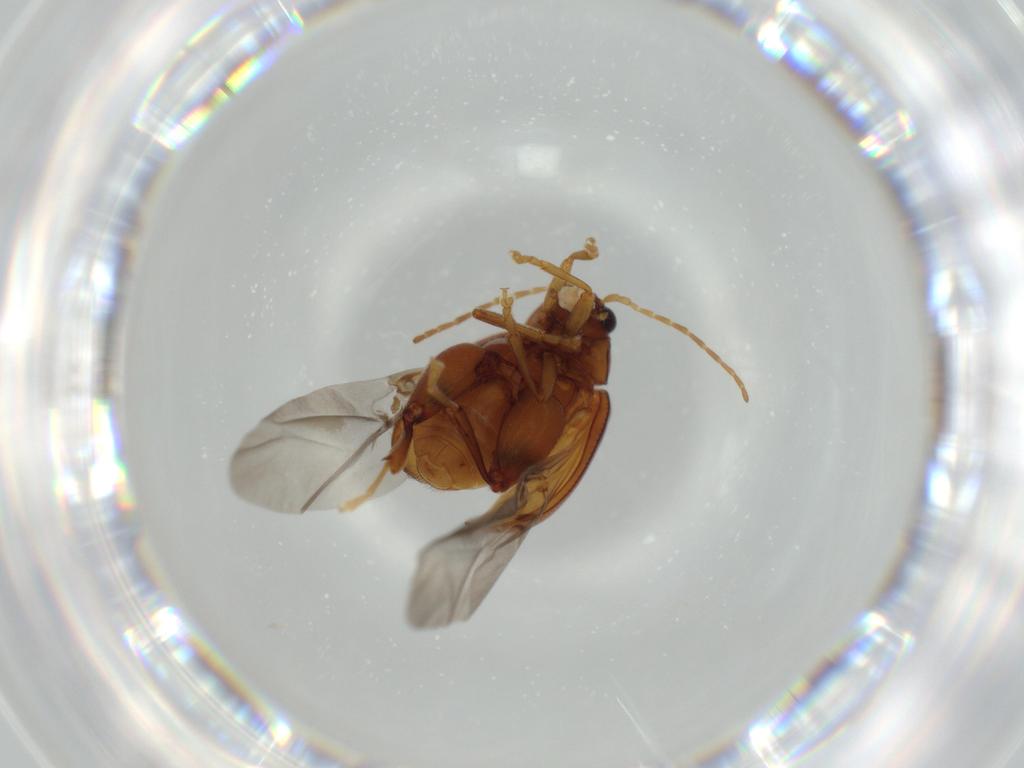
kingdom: Animalia
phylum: Arthropoda
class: Insecta
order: Coleoptera
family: Chrysomelidae
